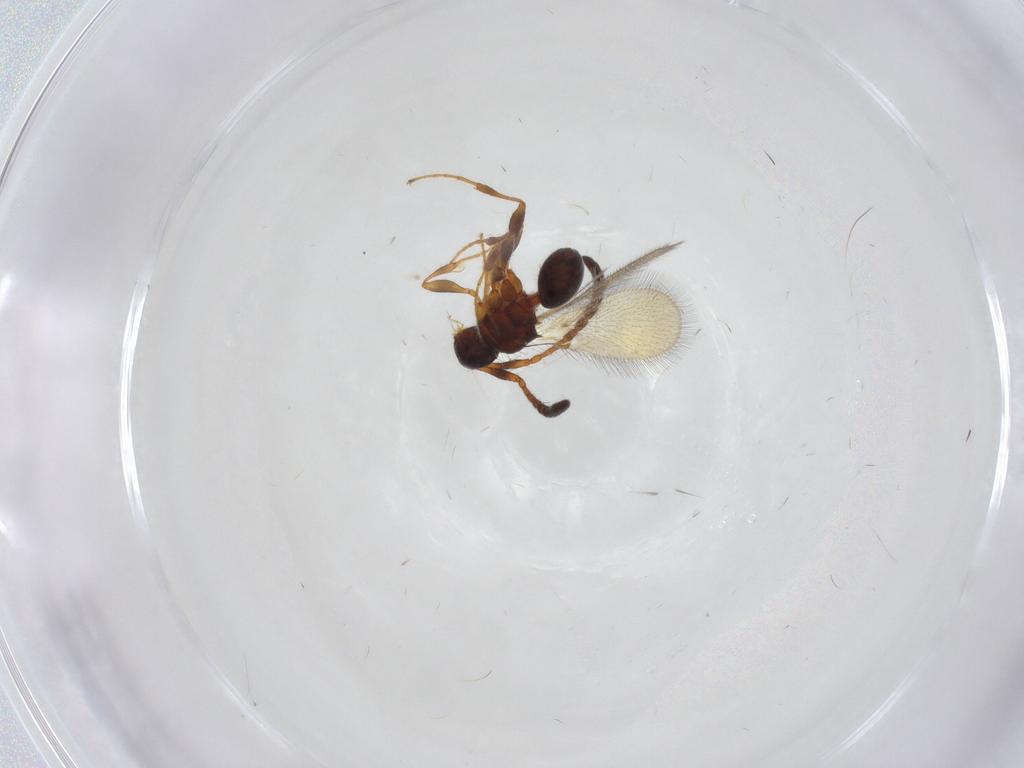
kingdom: Animalia
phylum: Arthropoda
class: Insecta
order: Hymenoptera
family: Diapriidae
